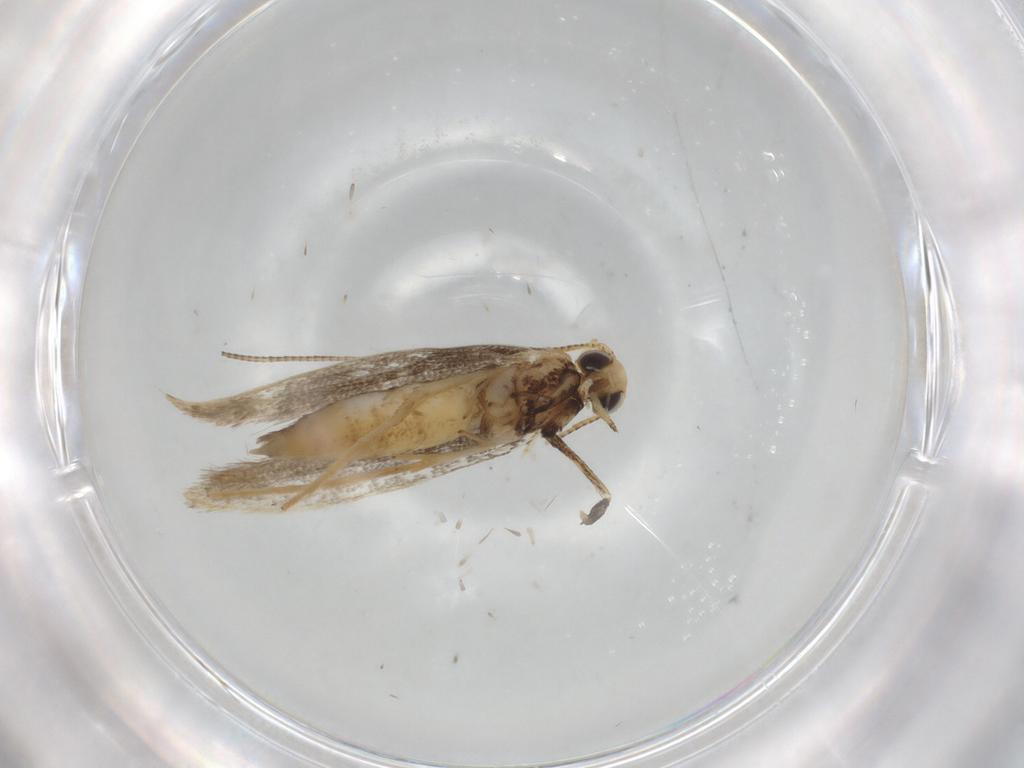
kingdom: Animalia
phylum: Arthropoda
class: Insecta
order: Lepidoptera
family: Gracillariidae
